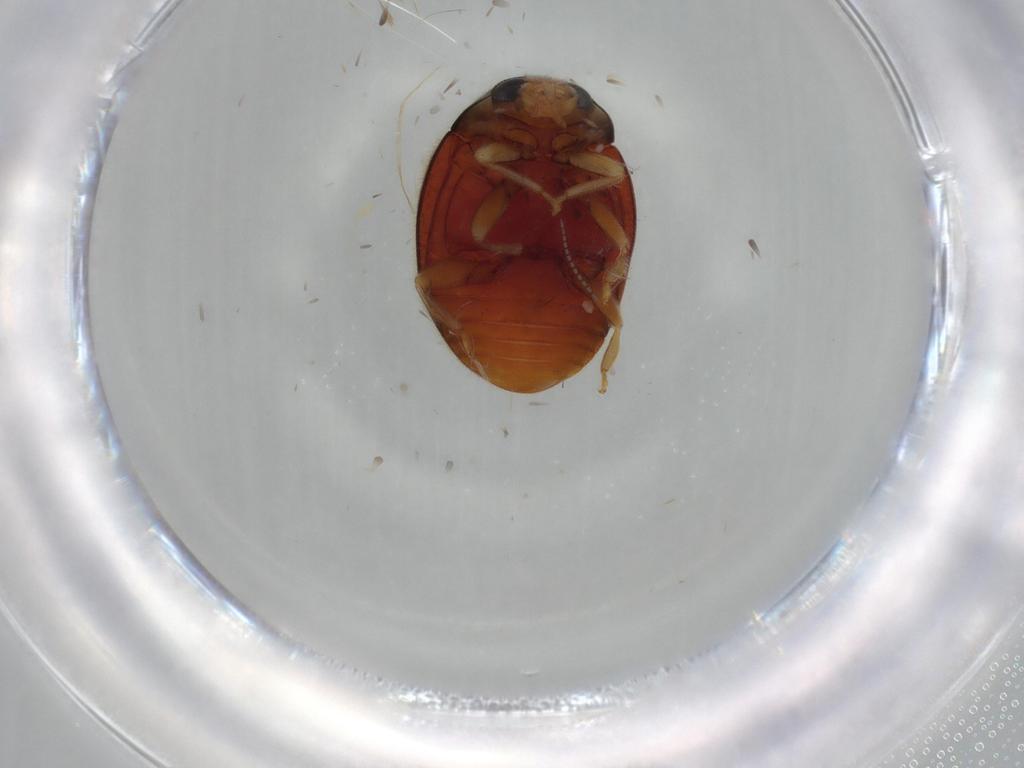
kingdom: Animalia
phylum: Arthropoda
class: Insecta
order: Coleoptera
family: Coccinellidae
